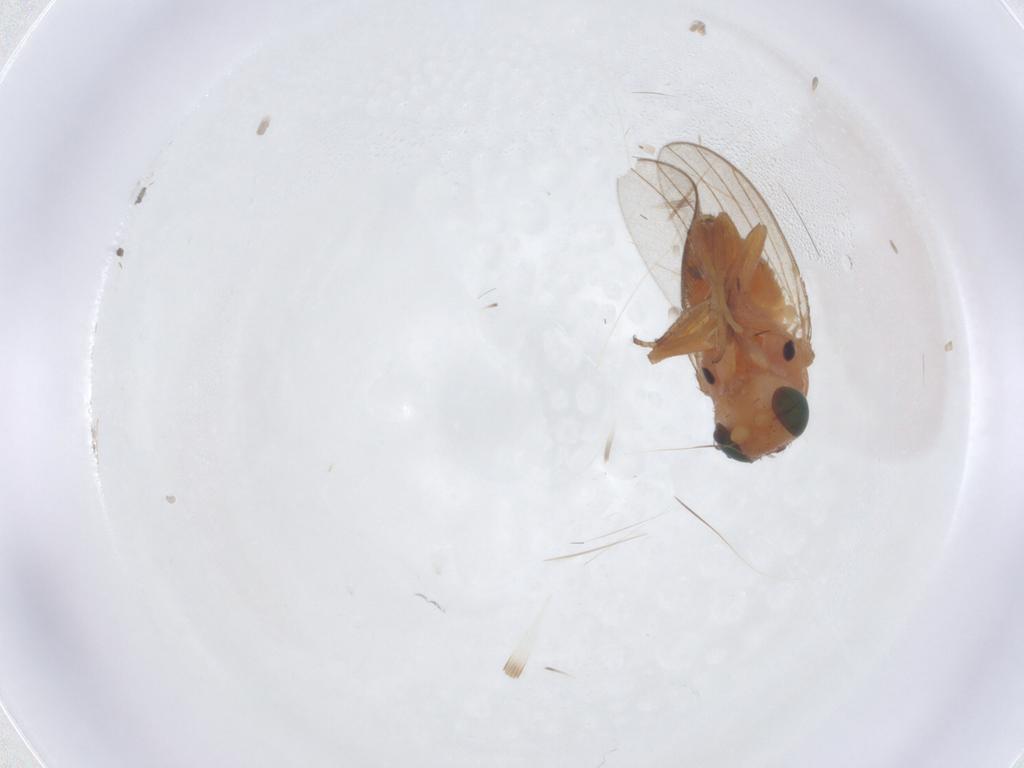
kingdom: Animalia
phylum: Arthropoda
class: Insecta
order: Diptera
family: Chloropidae
